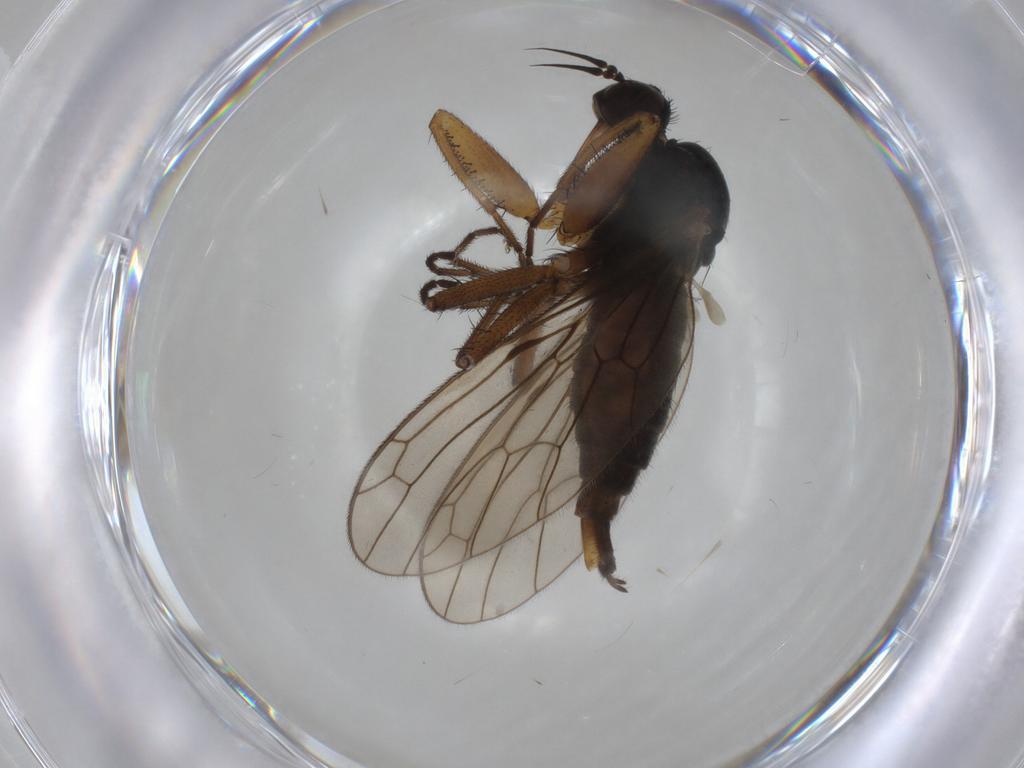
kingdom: Animalia
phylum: Arthropoda
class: Insecta
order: Diptera
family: Empididae
